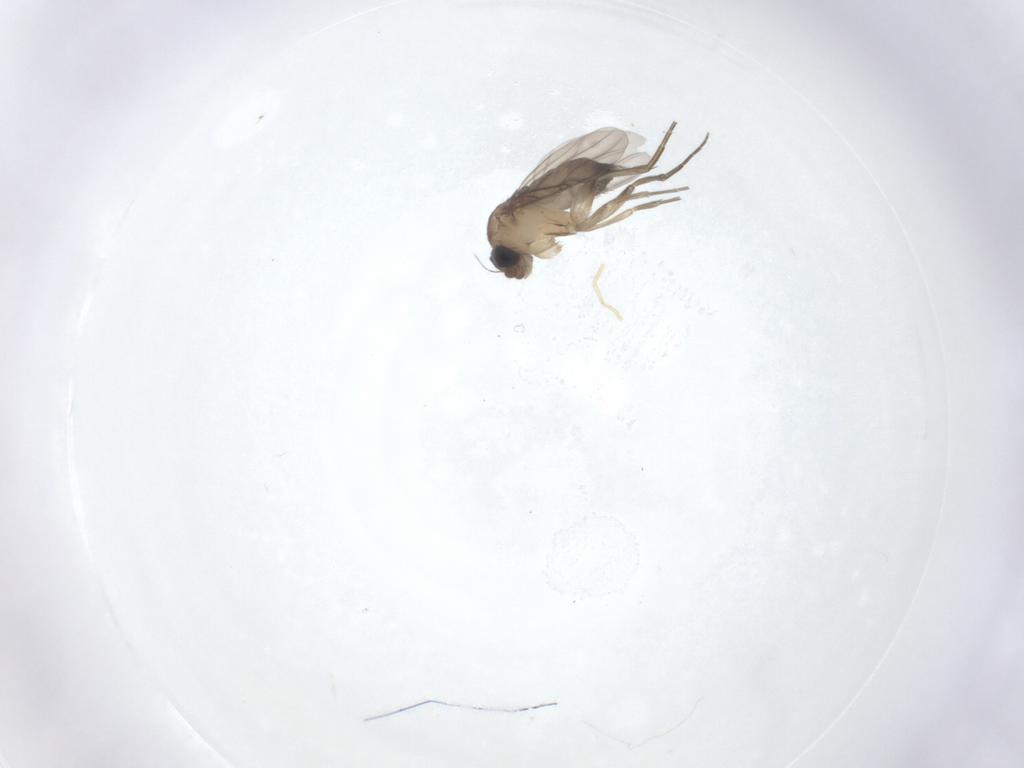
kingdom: Animalia
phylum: Arthropoda
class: Insecta
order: Diptera
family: Phoridae
